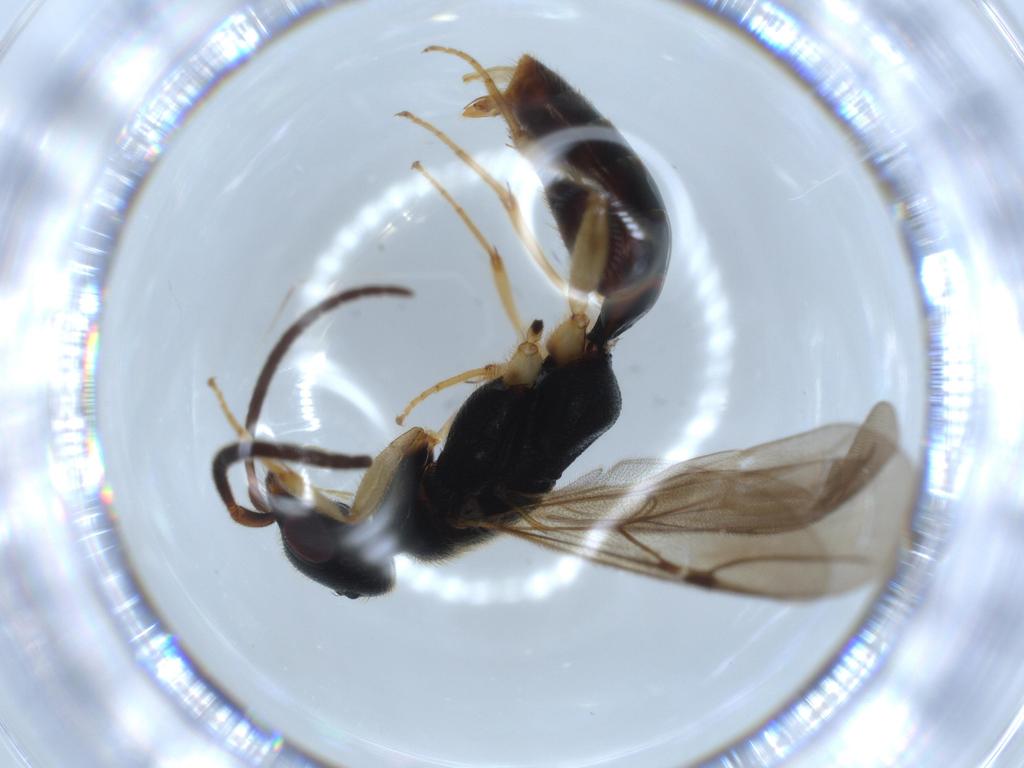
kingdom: Animalia
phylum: Arthropoda
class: Insecta
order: Hymenoptera
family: Bethylidae
